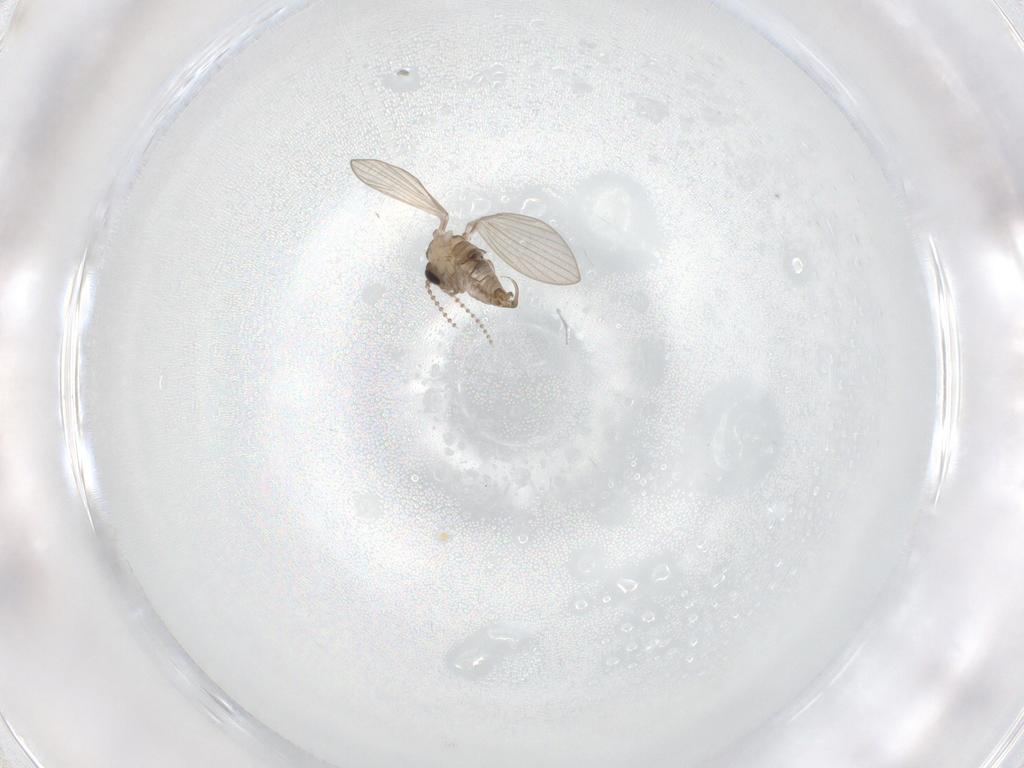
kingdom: Animalia
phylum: Arthropoda
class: Insecta
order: Diptera
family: Psychodidae
